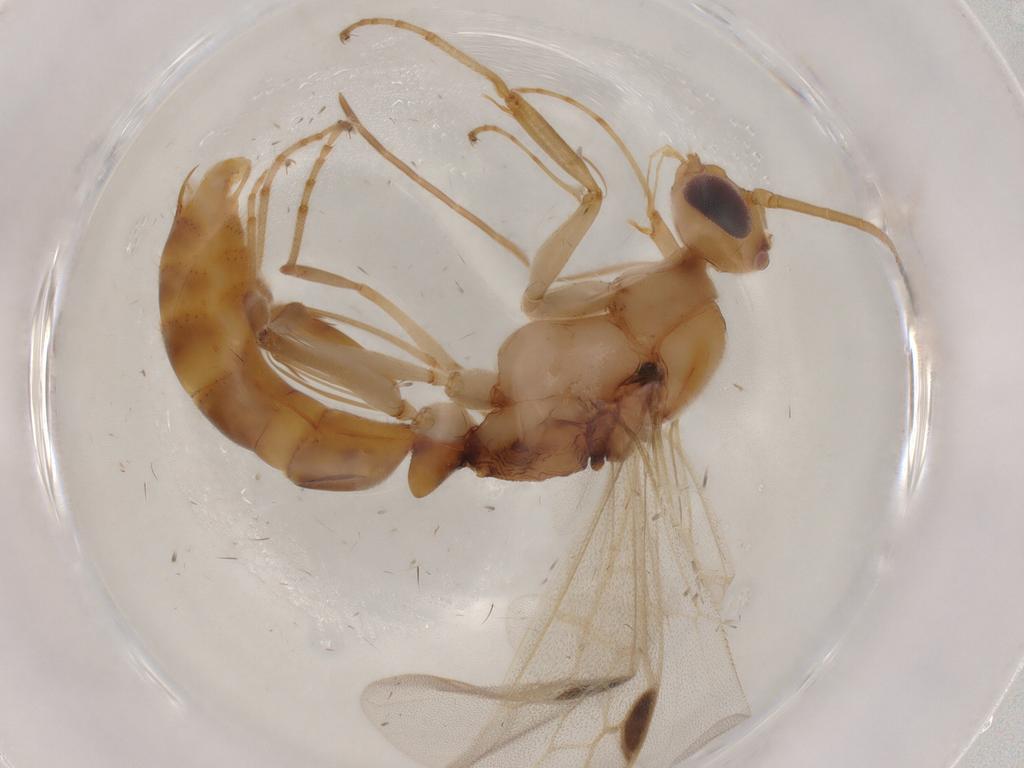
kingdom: Animalia
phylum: Arthropoda
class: Insecta
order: Hymenoptera
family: Formicidae
